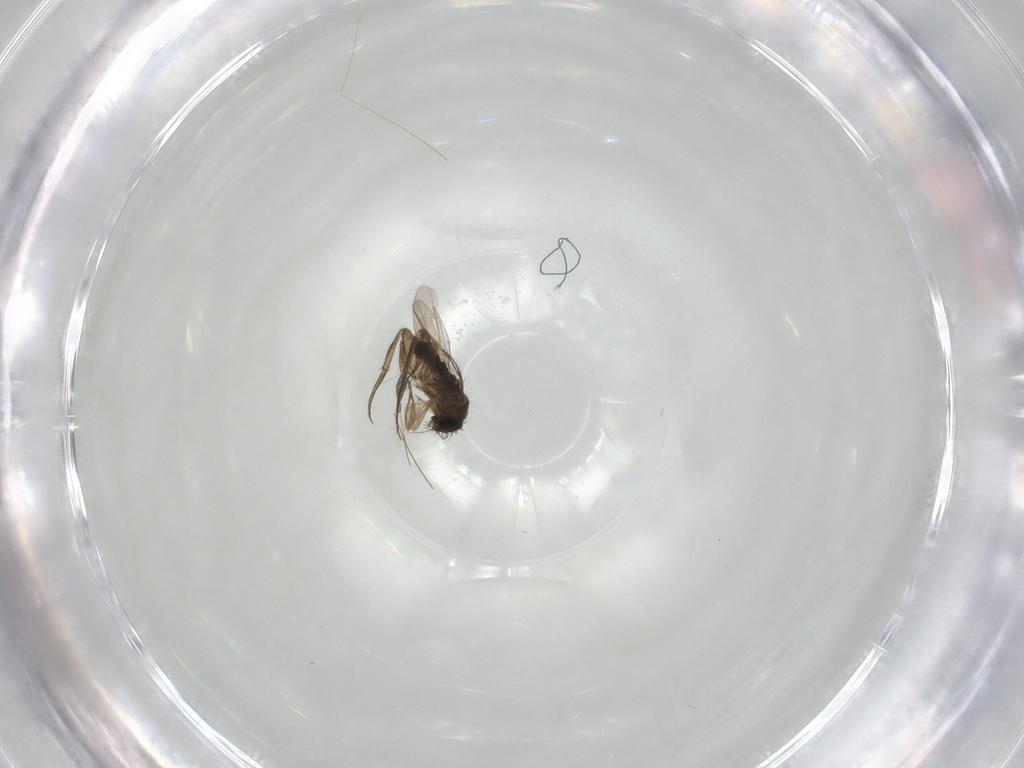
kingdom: Animalia
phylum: Arthropoda
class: Insecta
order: Diptera
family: Phoridae
